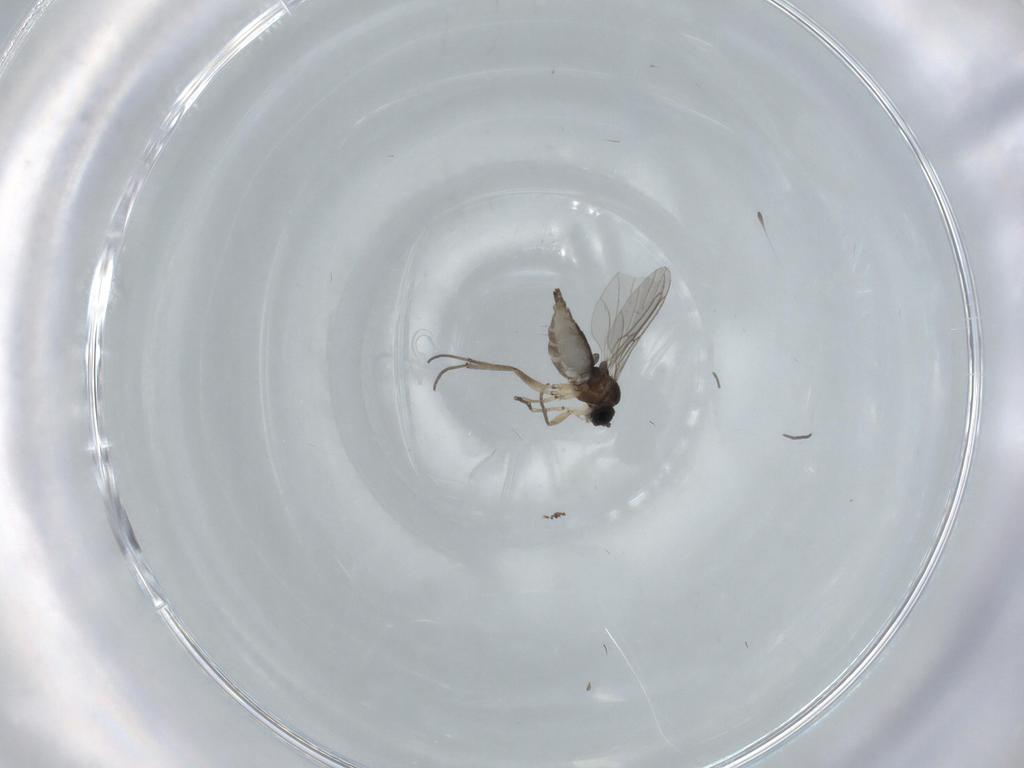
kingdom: Animalia
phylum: Arthropoda
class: Insecta
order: Diptera
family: Sciaridae
